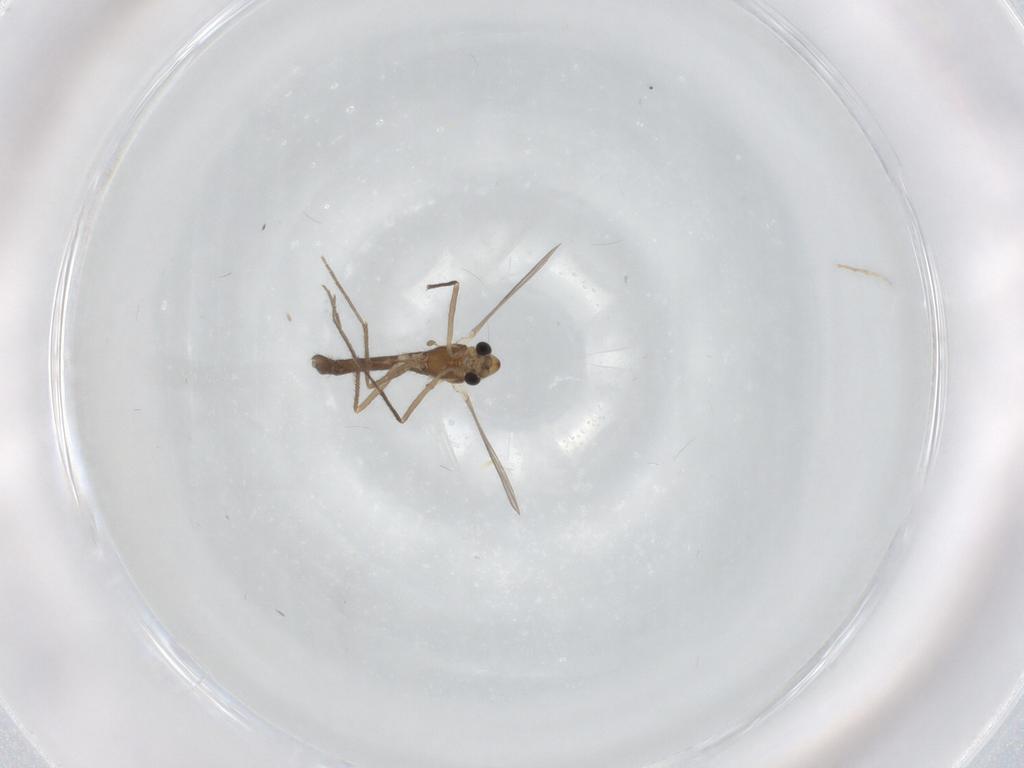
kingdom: Animalia
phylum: Arthropoda
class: Insecta
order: Diptera
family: Chironomidae
